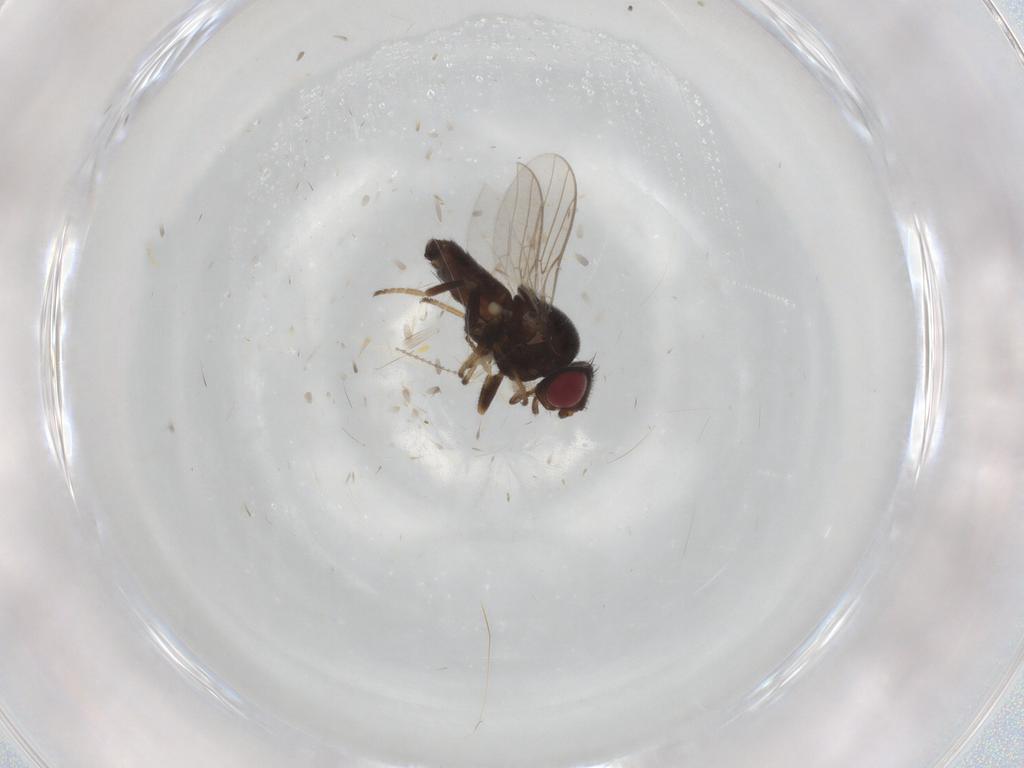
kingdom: Animalia
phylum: Arthropoda
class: Insecta
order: Diptera
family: Chloropidae
